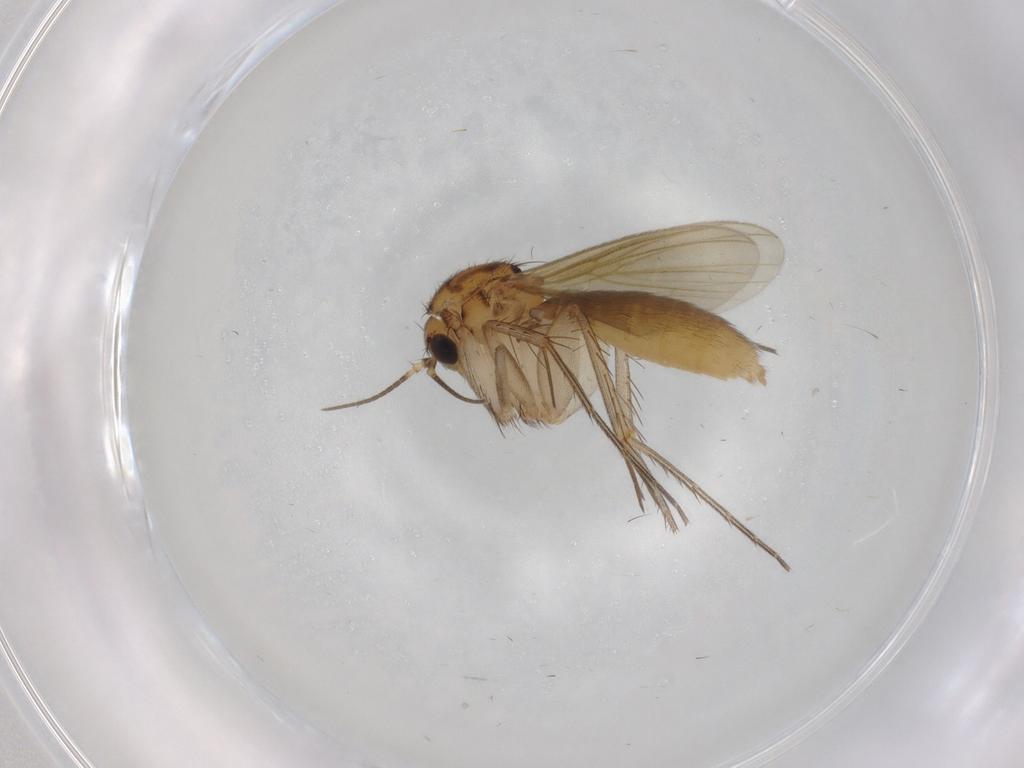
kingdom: Animalia
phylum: Arthropoda
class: Insecta
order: Diptera
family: Mycetophilidae
